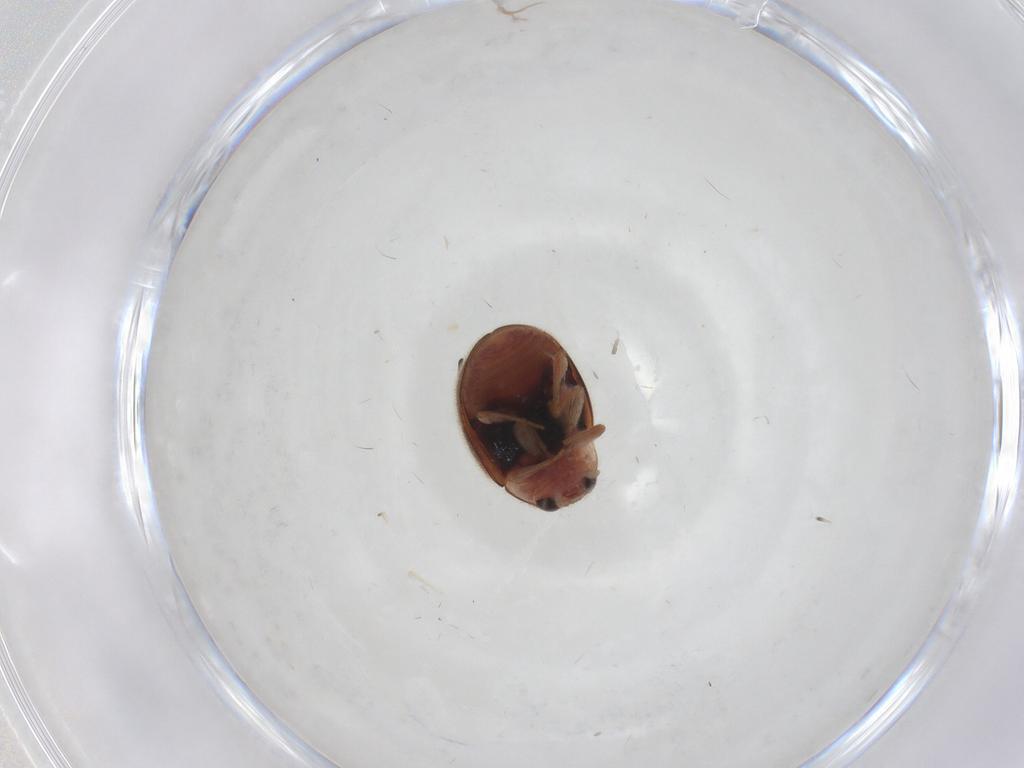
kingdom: Animalia
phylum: Arthropoda
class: Insecta
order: Coleoptera
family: Coccinellidae
